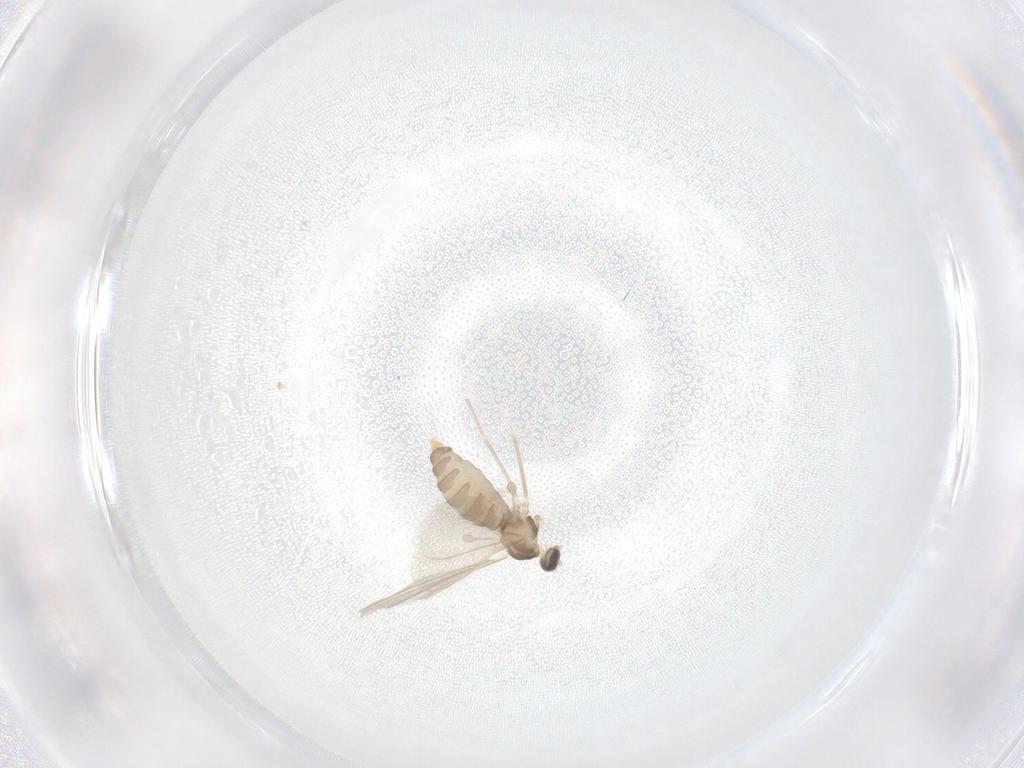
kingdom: Animalia
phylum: Arthropoda
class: Insecta
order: Diptera
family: Cecidomyiidae
